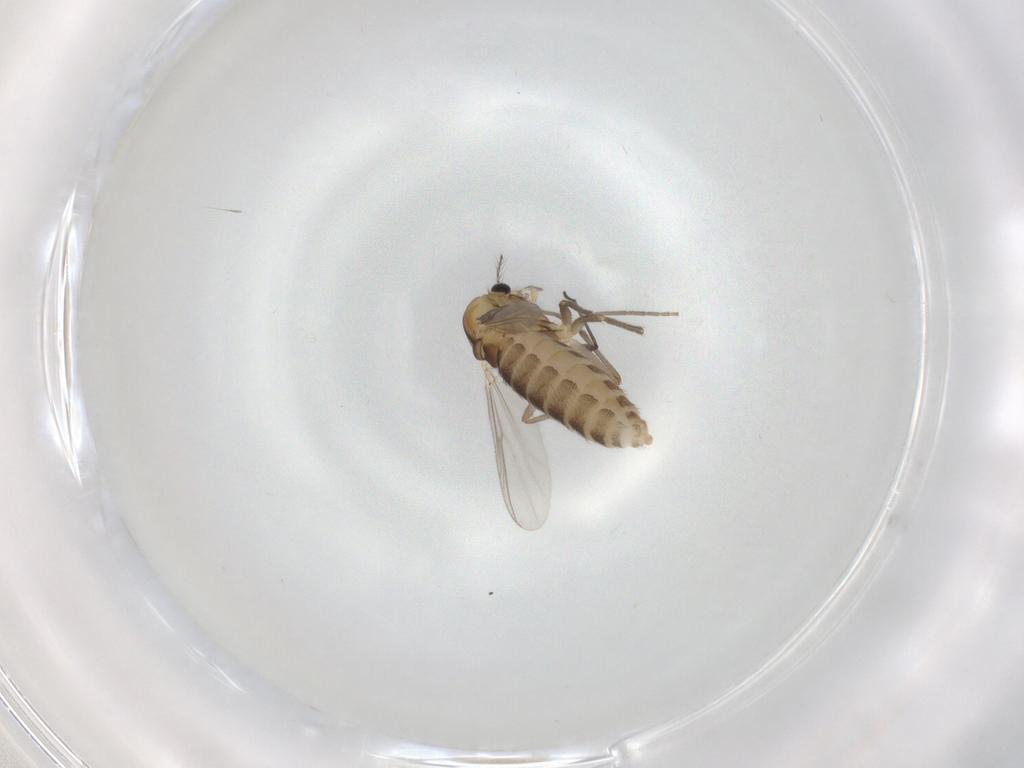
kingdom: Animalia
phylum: Arthropoda
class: Insecta
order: Diptera
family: Chironomidae
